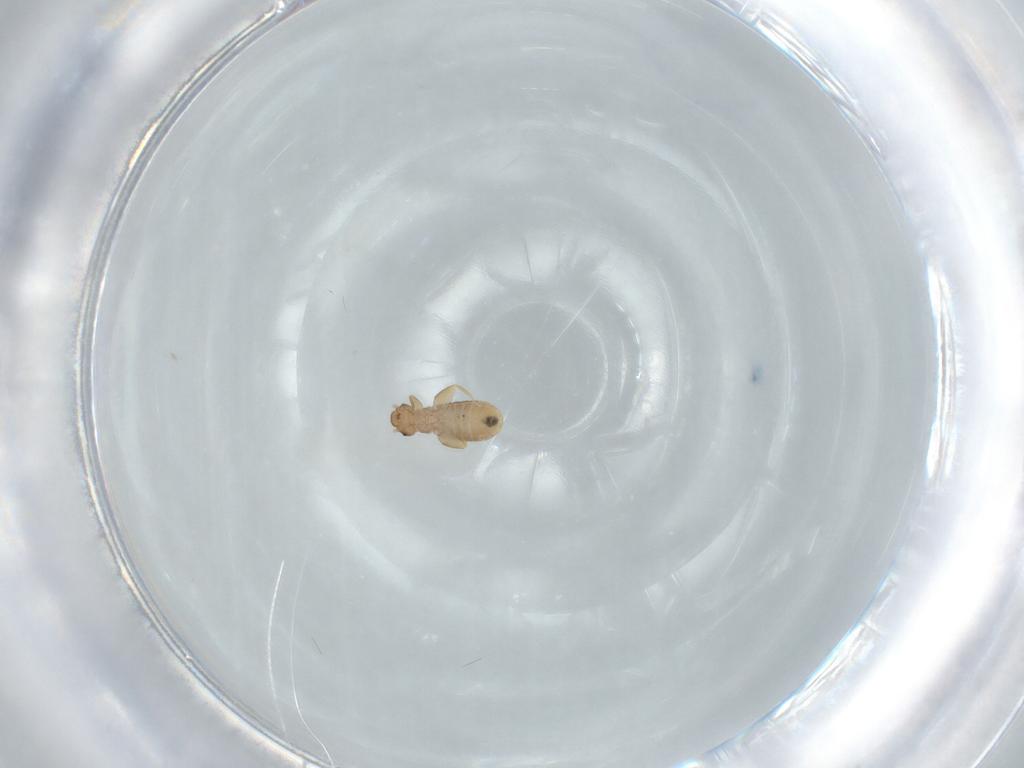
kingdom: Animalia
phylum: Arthropoda
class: Insecta
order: Psocodea
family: Liposcelididae
